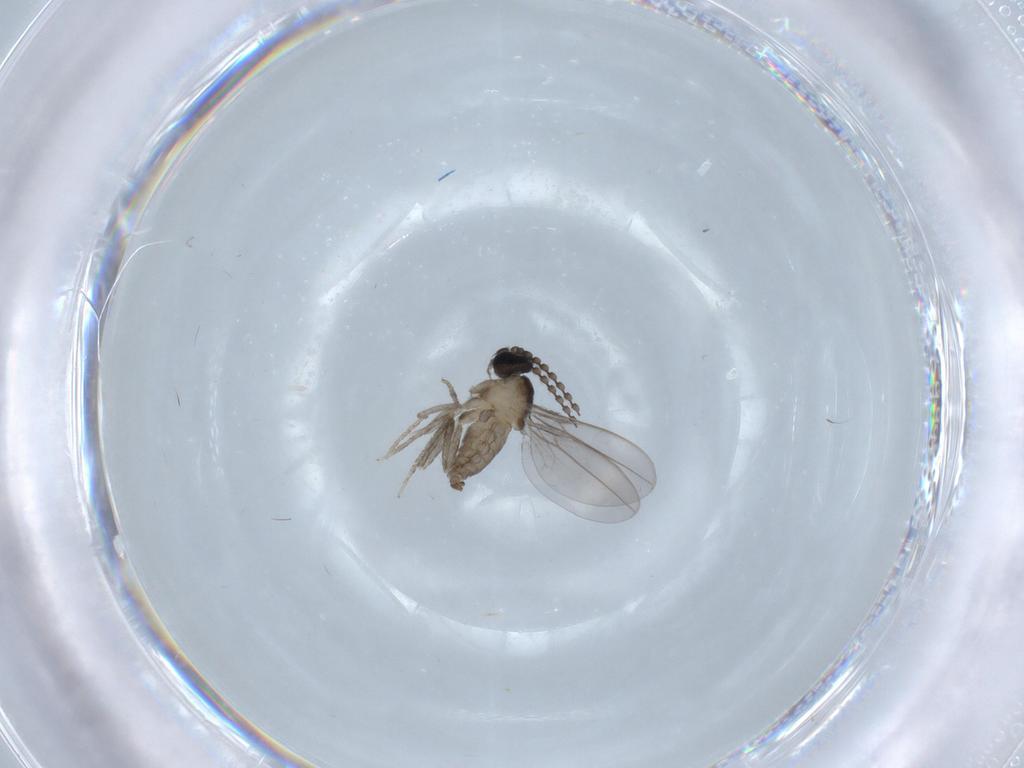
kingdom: Animalia
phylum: Arthropoda
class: Insecta
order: Diptera
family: Cecidomyiidae
